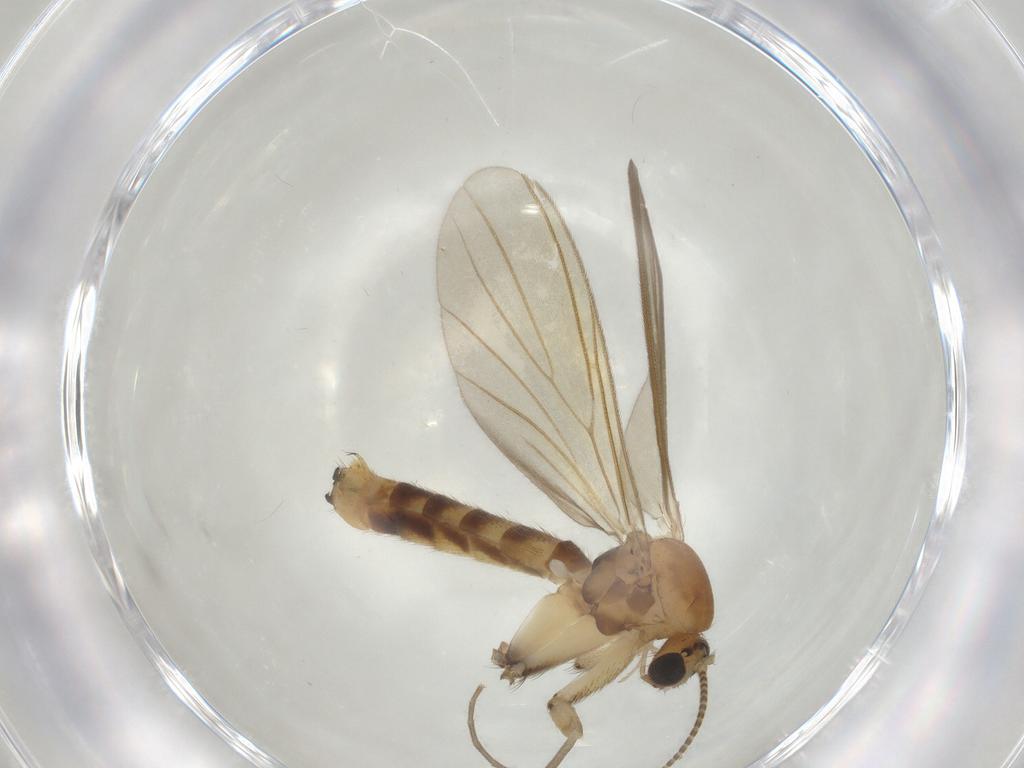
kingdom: Animalia
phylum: Arthropoda
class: Insecta
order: Diptera
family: Mycetophilidae
